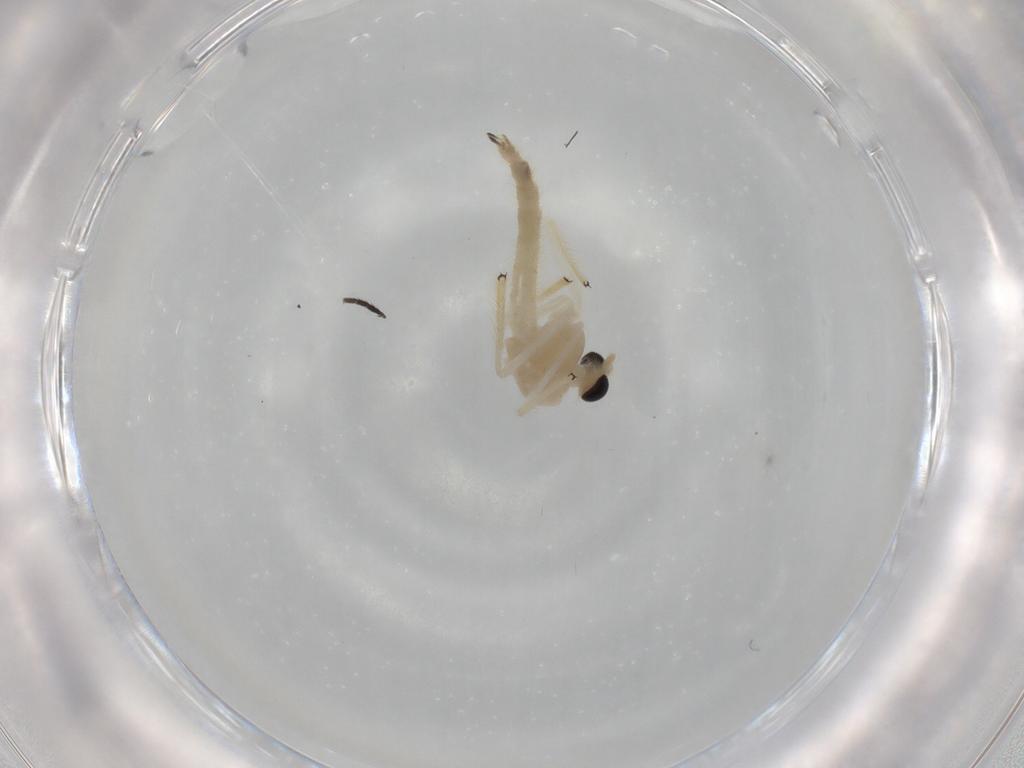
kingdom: Animalia
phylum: Arthropoda
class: Insecta
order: Diptera
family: Chironomidae
